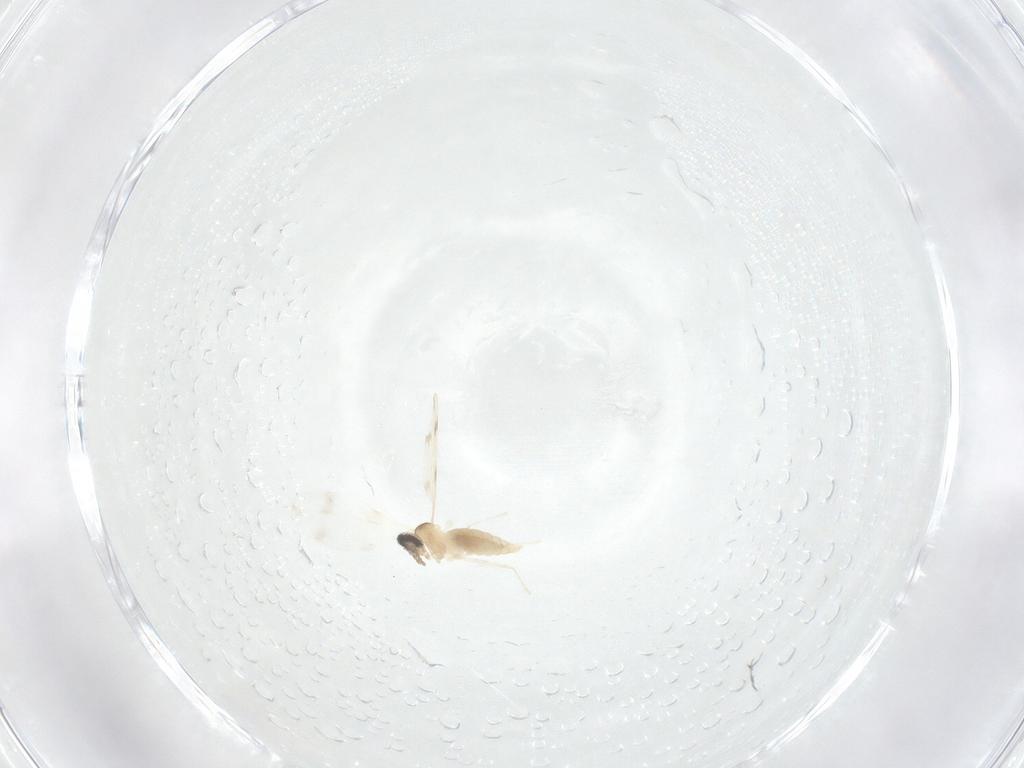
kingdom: Animalia
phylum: Arthropoda
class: Insecta
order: Diptera
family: Cecidomyiidae
